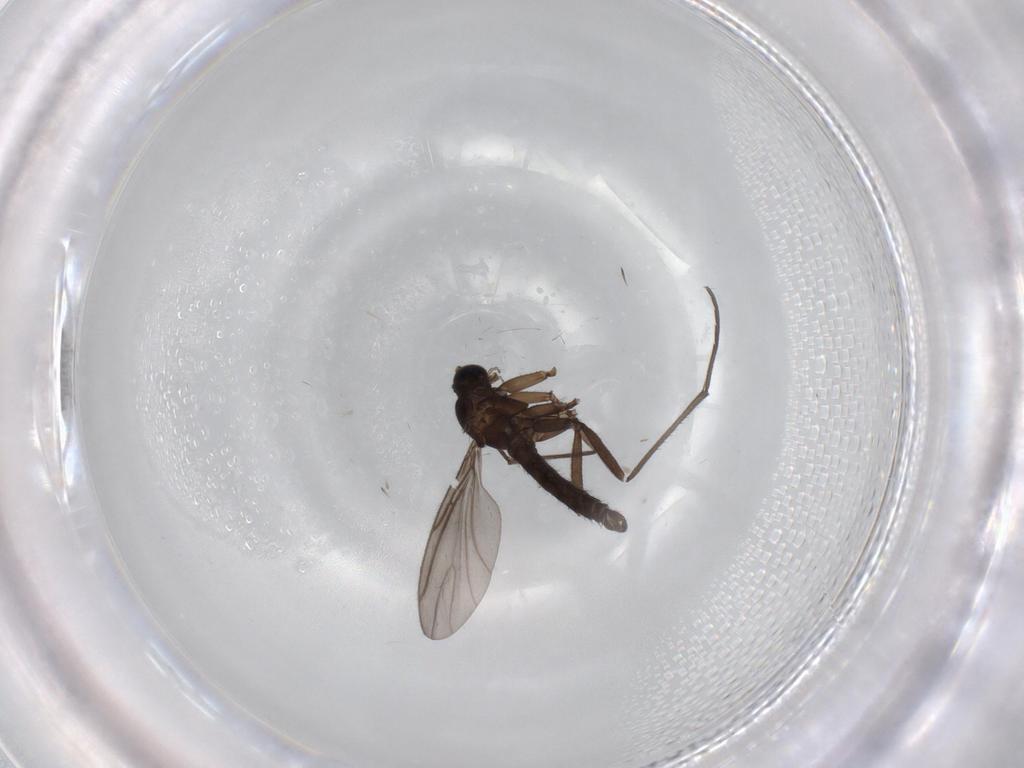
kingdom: Animalia
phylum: Arthropoda
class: Insecta
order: Diptera
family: Sciaridae
